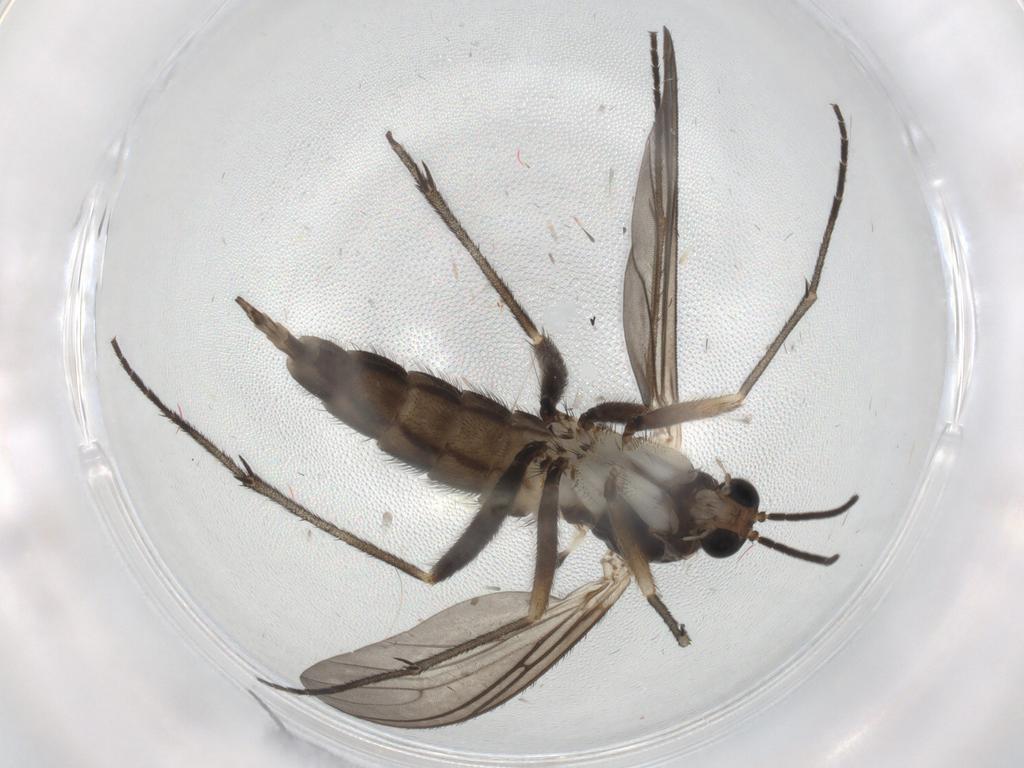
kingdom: Animalia
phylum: Arthropoda
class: Insecta
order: Diptera
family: Sciaridae
